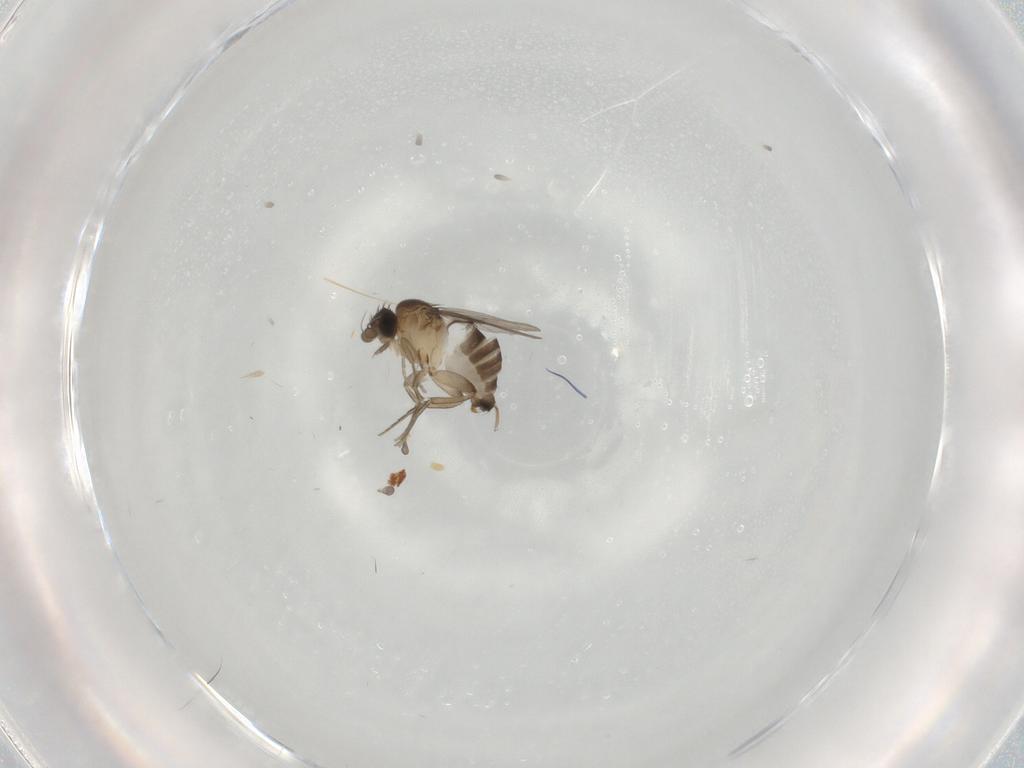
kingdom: Animalia
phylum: Arthropoda
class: Insecta
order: Diptera
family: Phoridae
